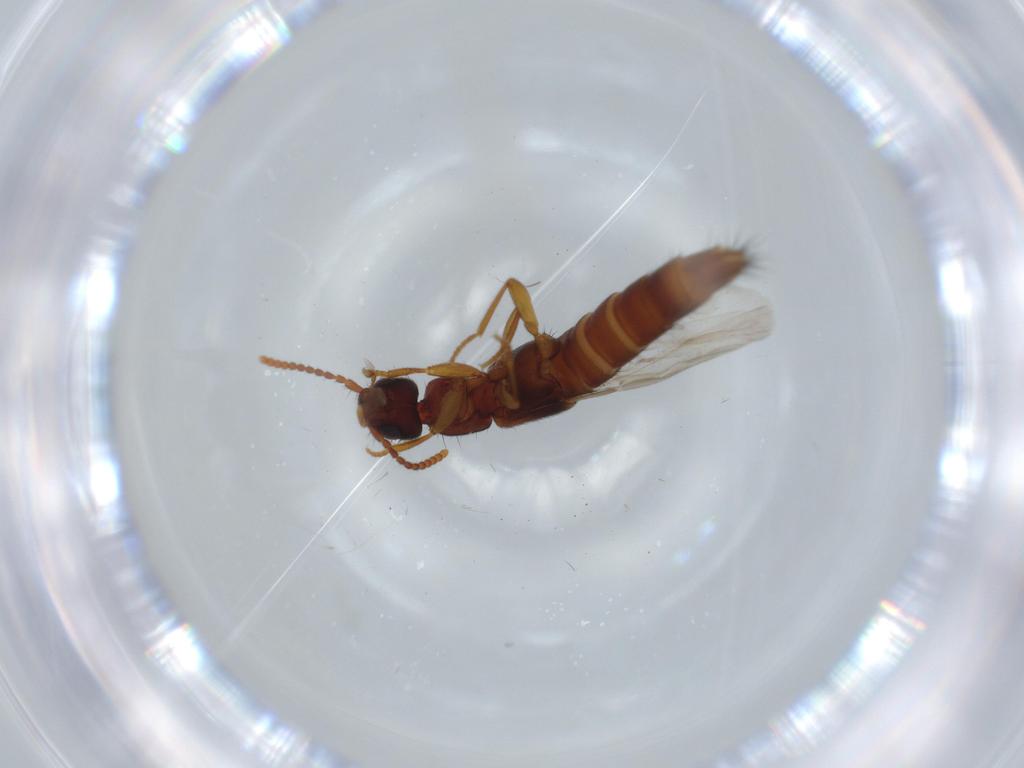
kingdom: Animalia
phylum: Arthropoda
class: Insecta
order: Coleoptera
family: Staphylinidae
